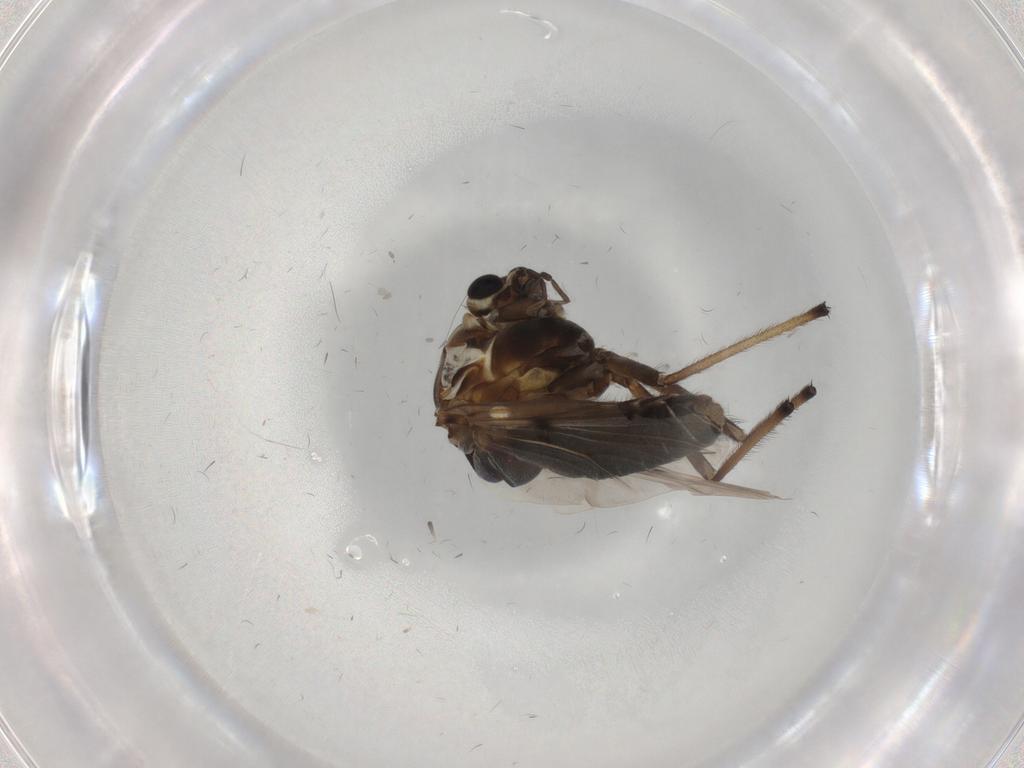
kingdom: Animalia
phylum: Arthropoda
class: Insecta
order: Diptera
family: Chironomidae
